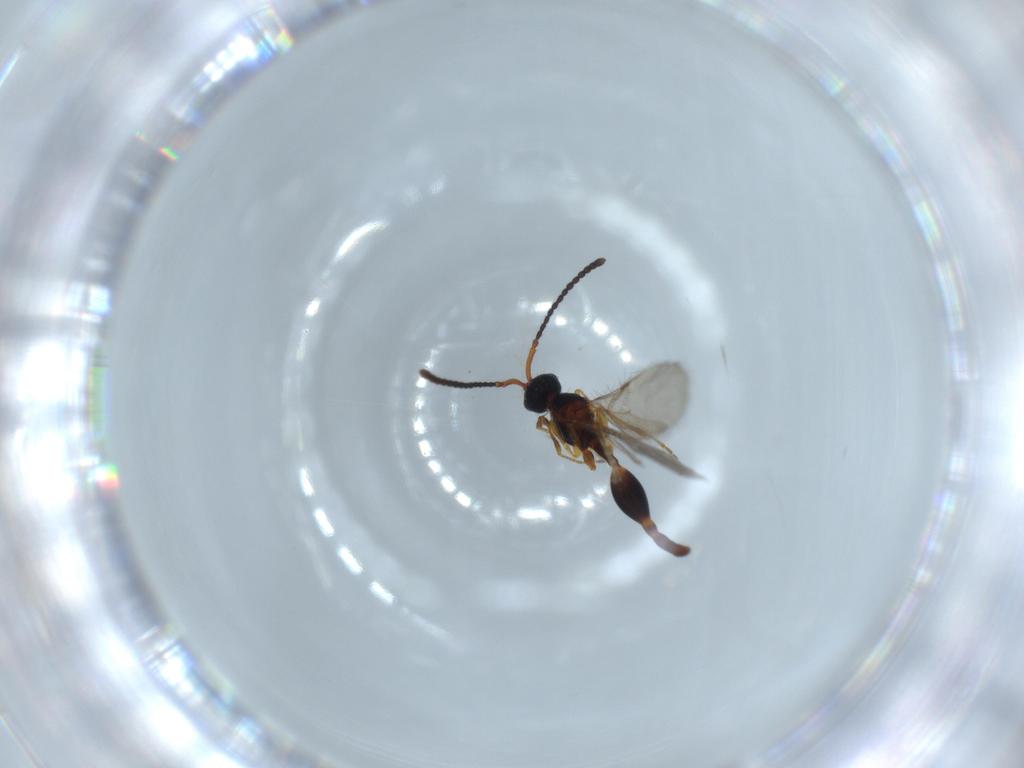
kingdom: Animalia
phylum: Arthropoda
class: Insecta
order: Hymenoptera
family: Diapriidae
